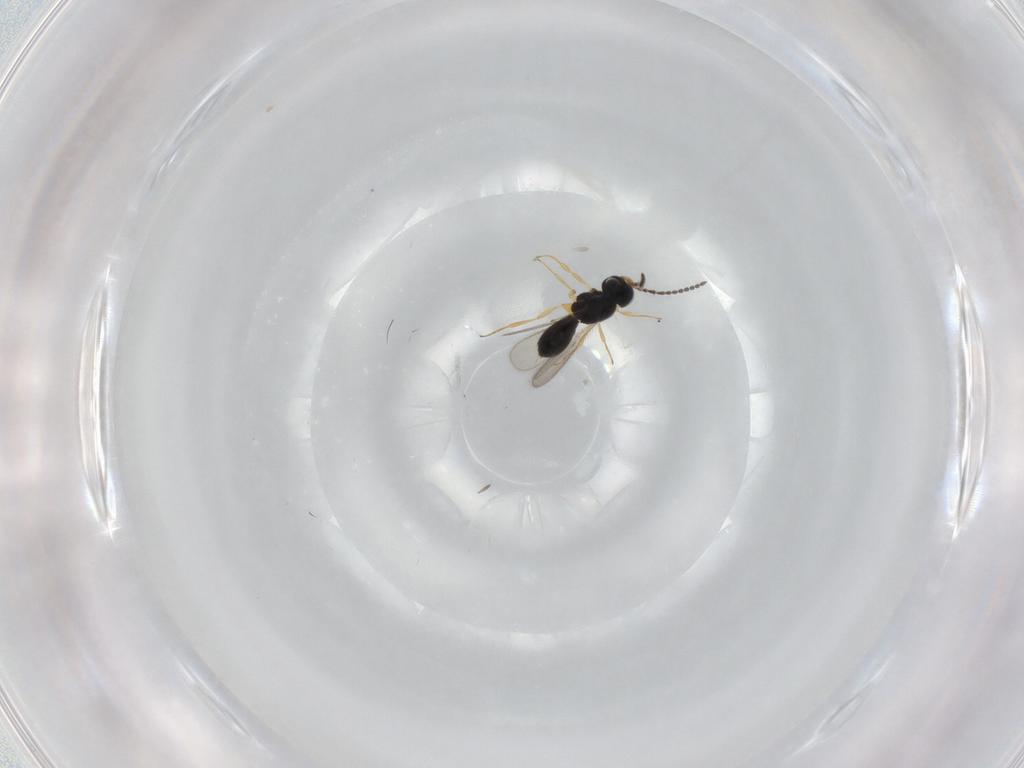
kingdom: Animalia
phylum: Arthropoda
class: Insecta
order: Hymenoptera
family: Scelionidae
